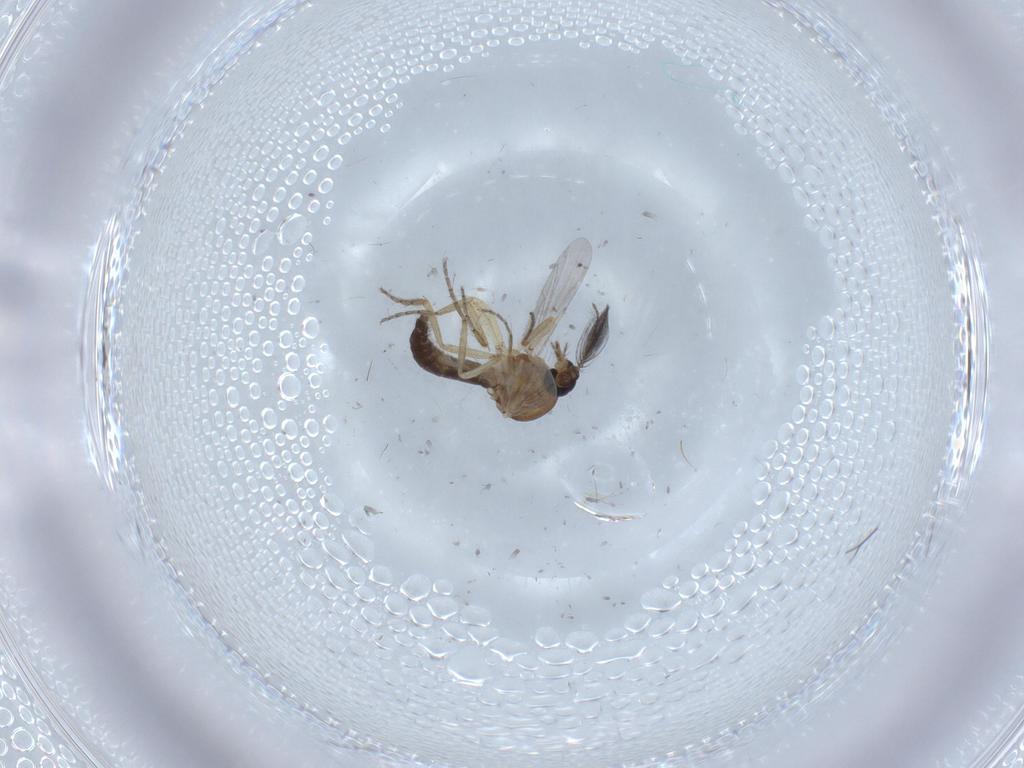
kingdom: Animalia
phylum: Arthropoda
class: Insecta
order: Diptera
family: Ceratopogonidae
